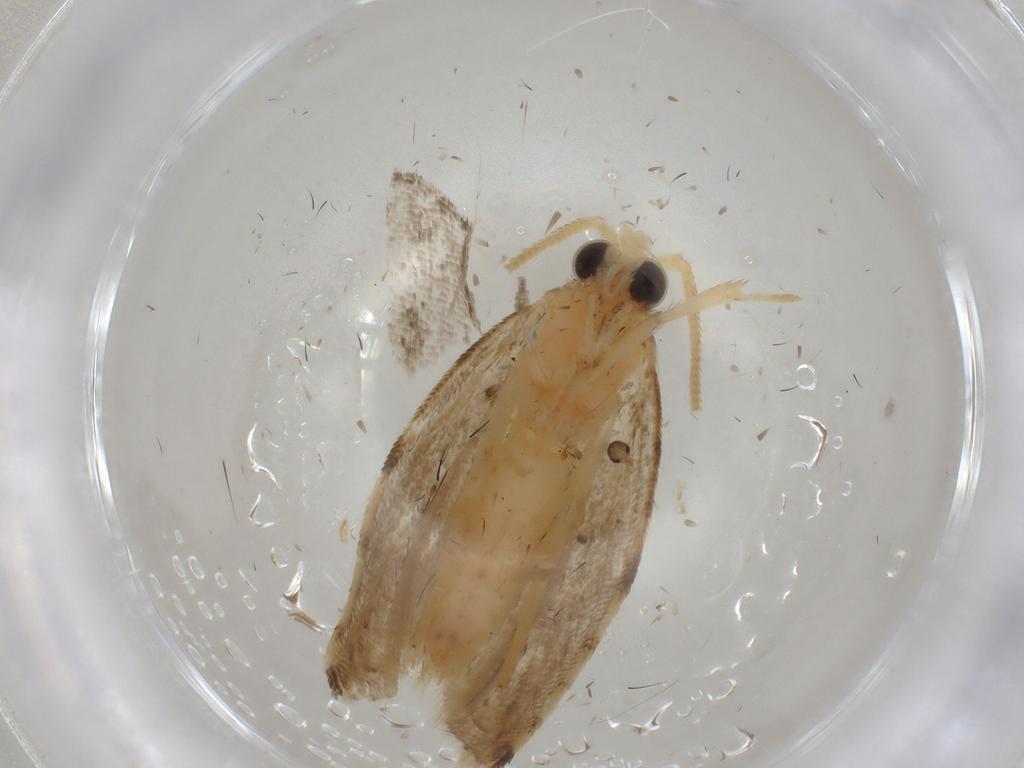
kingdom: Animalia
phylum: Arthropoda
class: Insecta
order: Lepidoptera
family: Tortricidae
